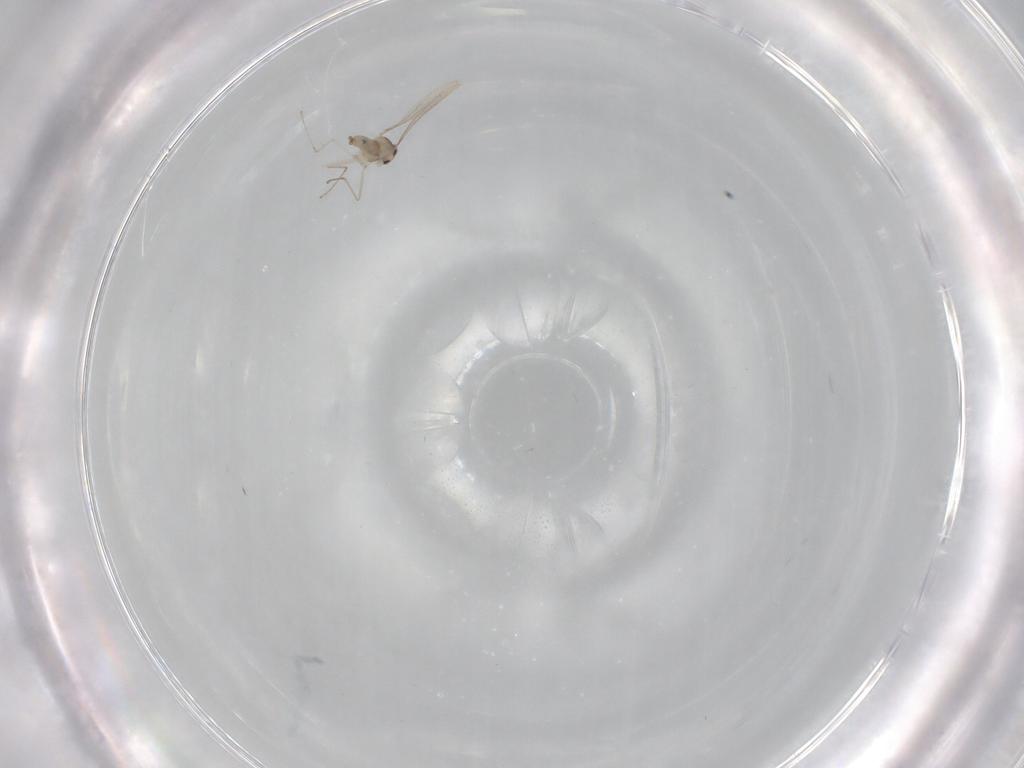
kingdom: Animalia
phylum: Arthropoda
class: Insecta
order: Diptera
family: Cecidomyiidae
